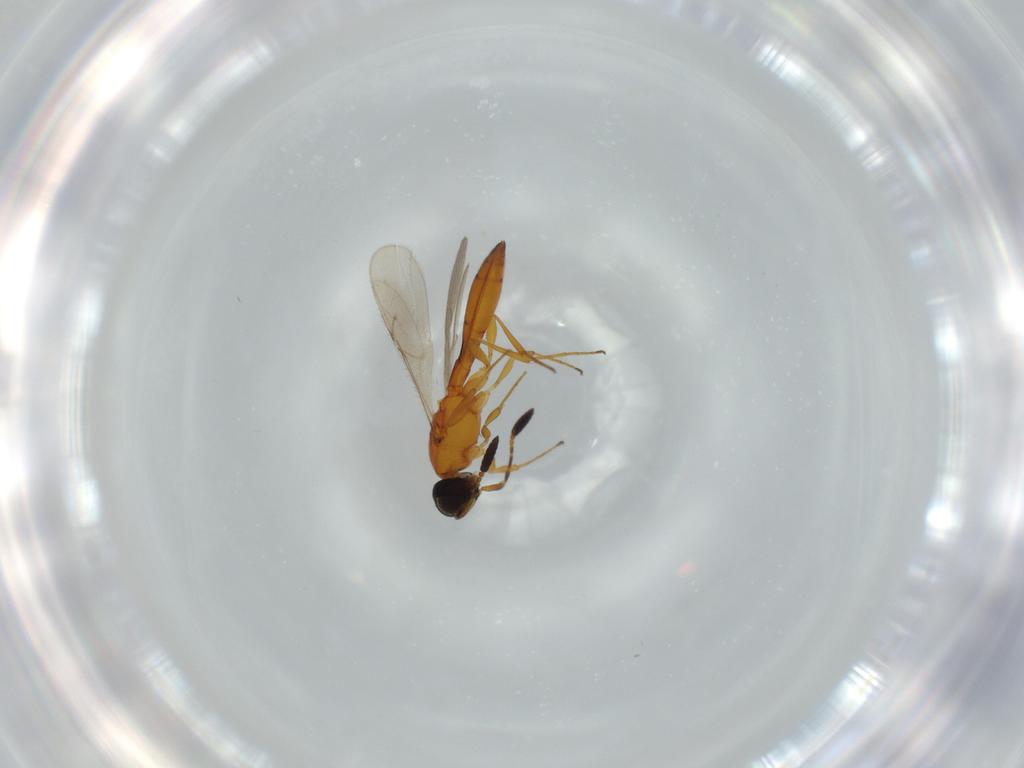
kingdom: Animalia
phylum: Arthropoda
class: Insecta
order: Hymenoptera
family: Scelionidae
